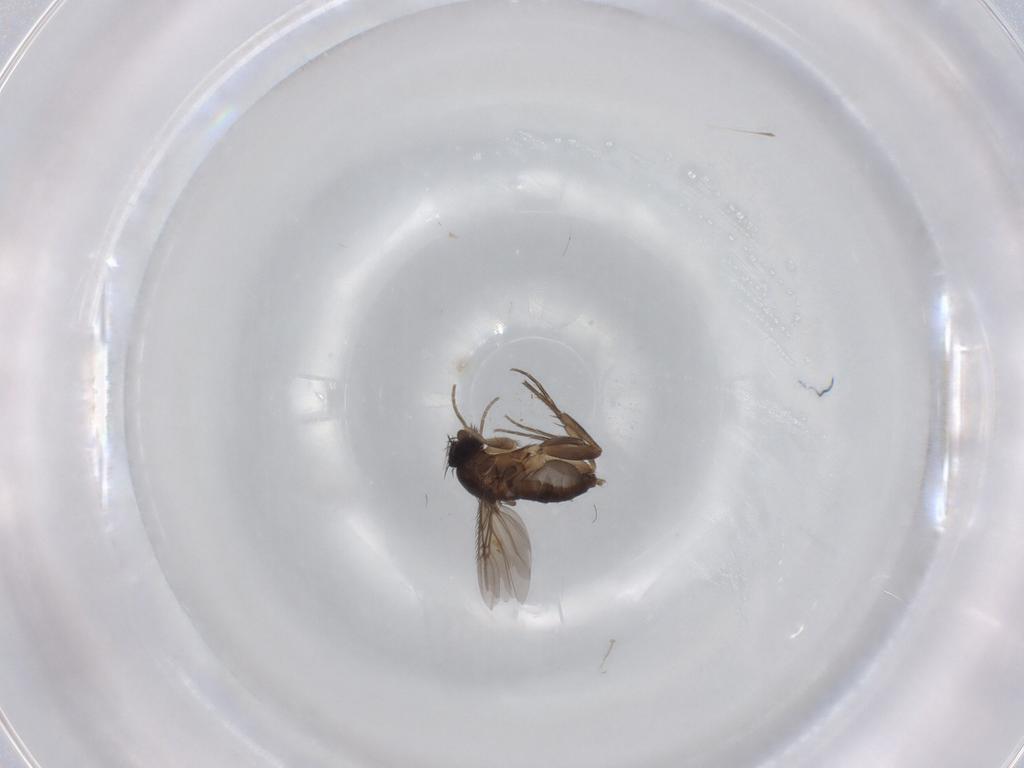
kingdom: Animalia
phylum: Arthropoda
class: Insecta
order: Diptera
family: Phoridae
